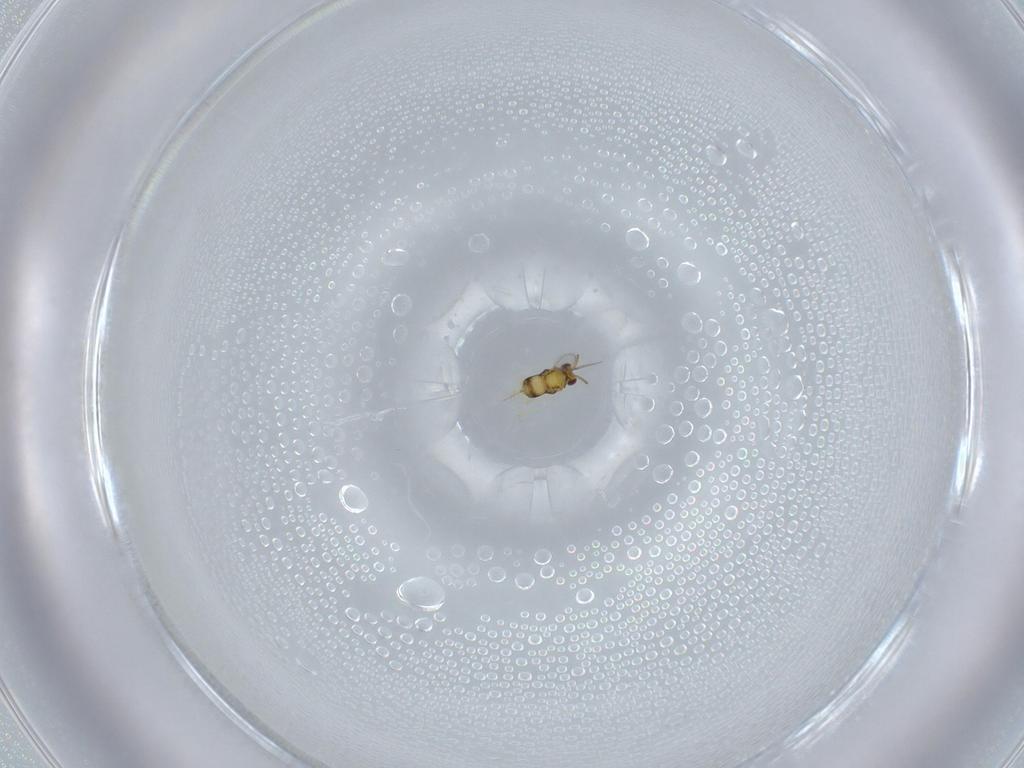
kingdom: Animalia
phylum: Arthropoda
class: Insecta
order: Hymenoptera
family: Aphelinidae
